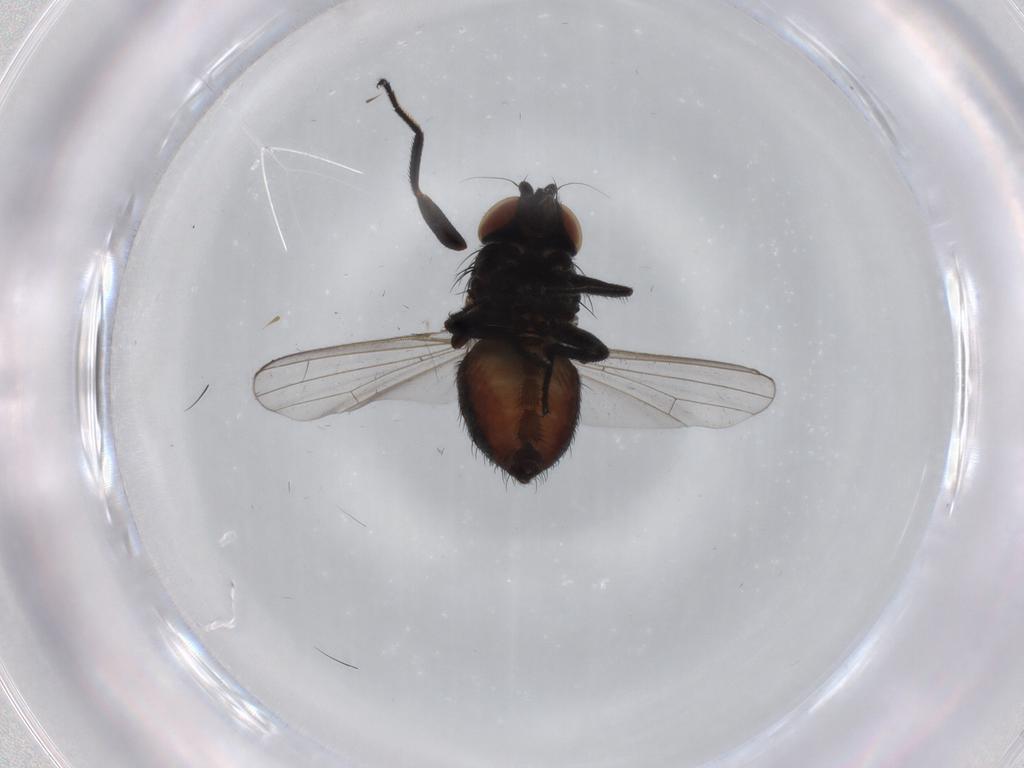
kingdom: Animalia
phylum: Arthropoda
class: Insecta
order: Diptera
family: Milichiidae
